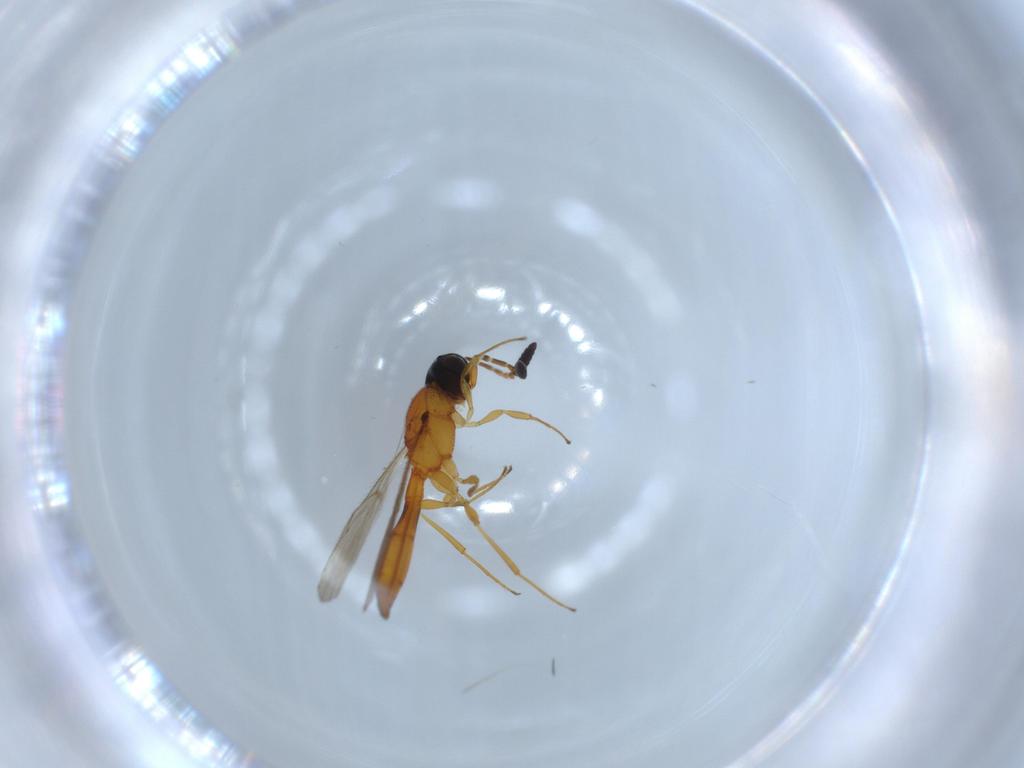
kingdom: Animalia
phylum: Arthropoda
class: Insecta
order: Hymenoptera
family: Scelionidae
